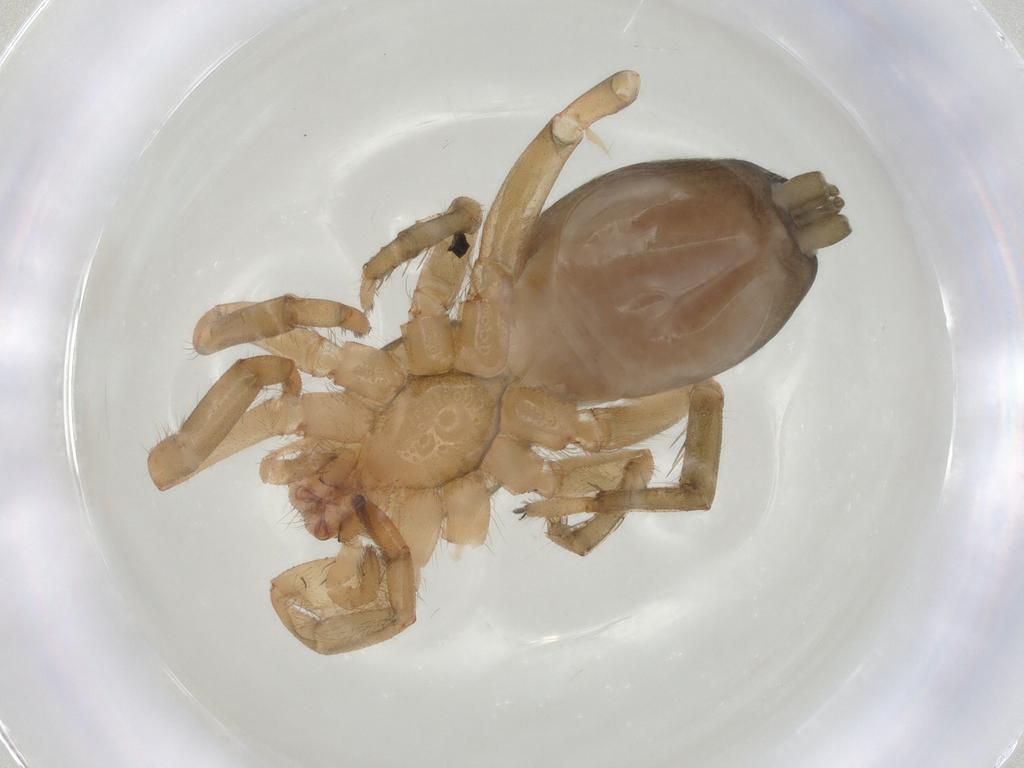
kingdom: Animalia
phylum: Arthropoda
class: Arachnida
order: Araneae
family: Gnaphosidae
